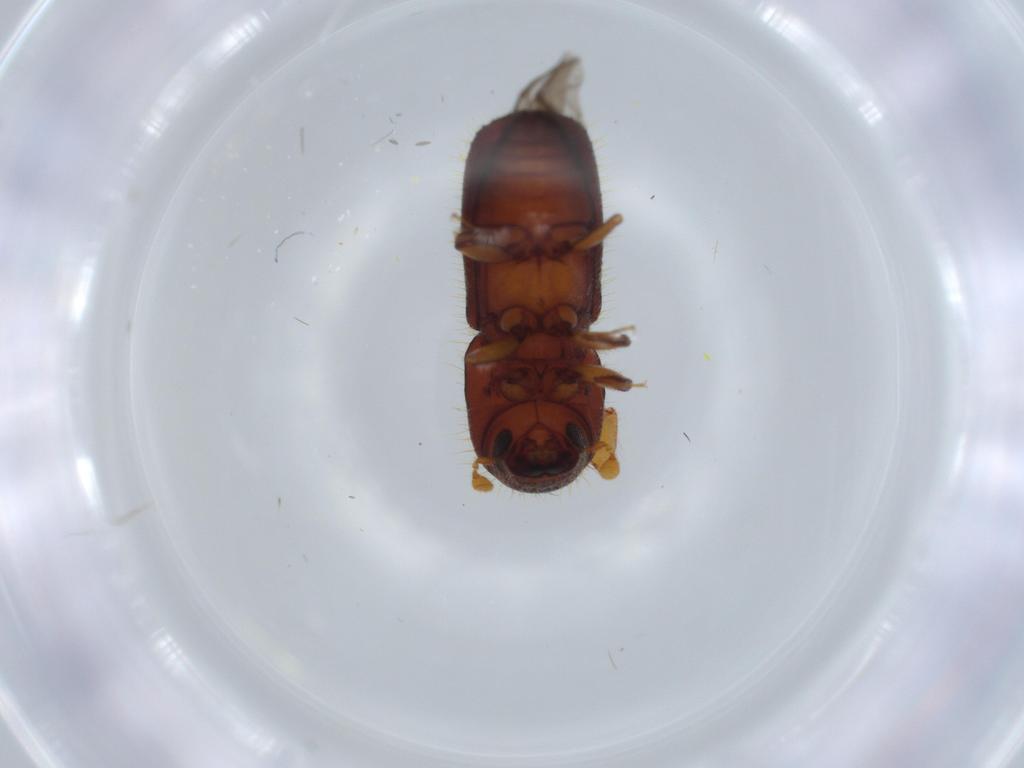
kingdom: Animalia
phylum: Arthropoda
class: Insecta
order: Coleoptera
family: Curculionidae
